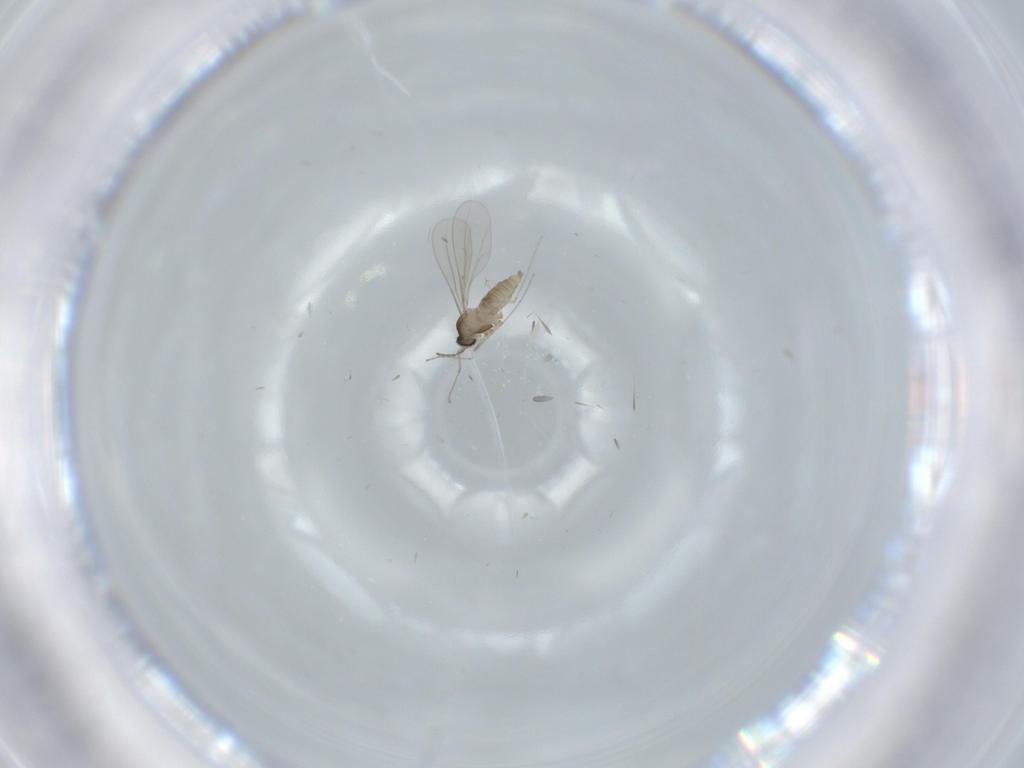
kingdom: Animalia
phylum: Arthropoda
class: Insecta
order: Diptera
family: Cecidomyiidae
